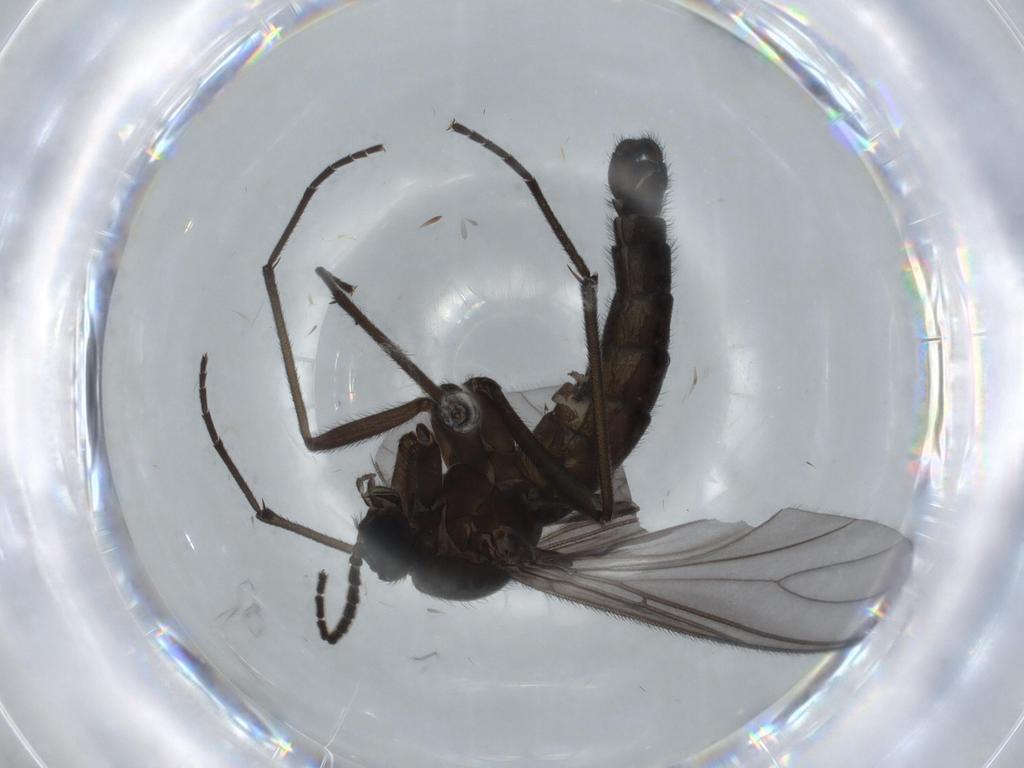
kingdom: Animalia
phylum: Arthropoda
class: Insecta
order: Diptera
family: Sciaridae
